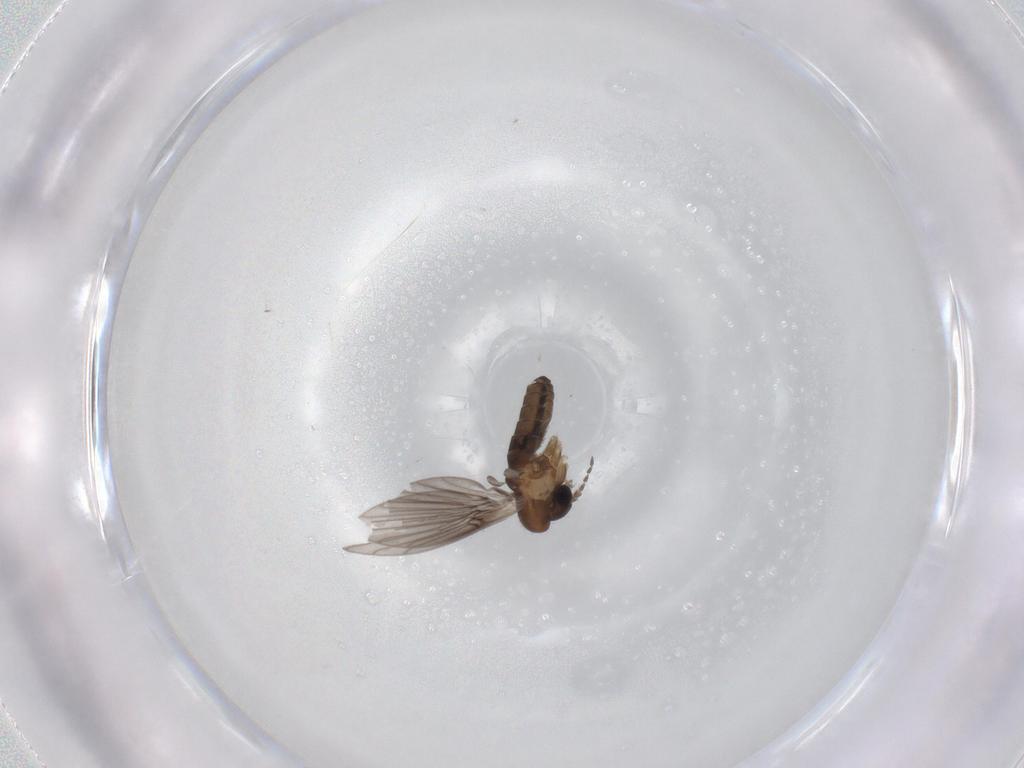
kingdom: Animalia
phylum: Arthropoda
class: Insecta
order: Diptera
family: Psychodidae
